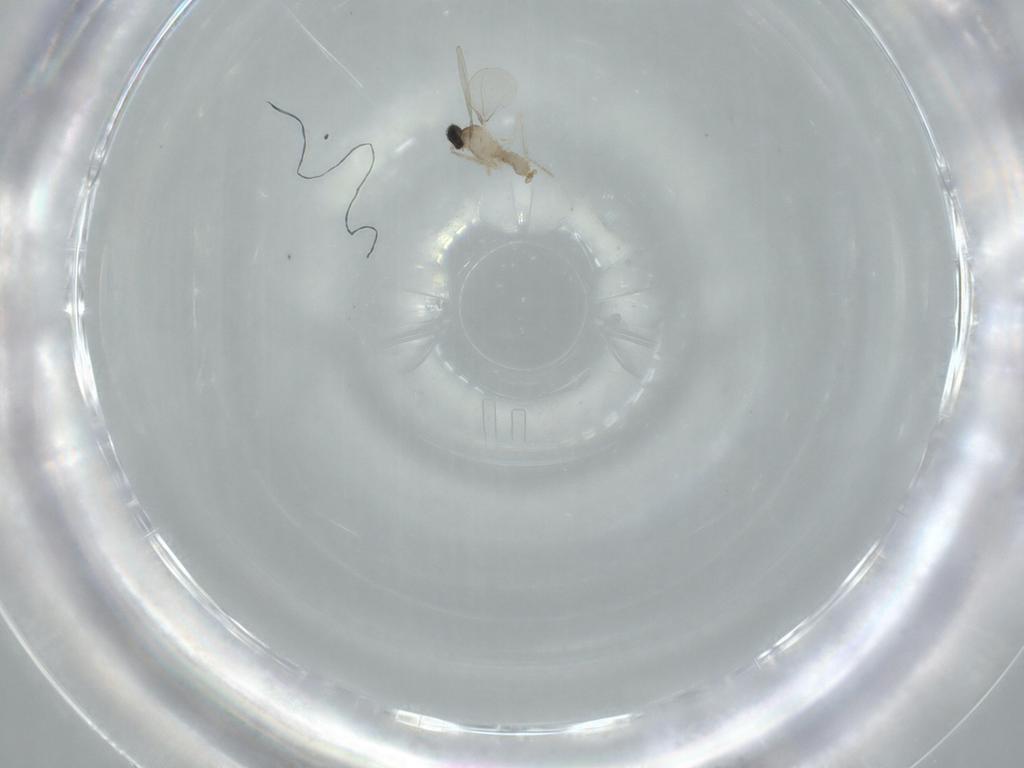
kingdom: Animalia
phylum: Arthropoda
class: Insecta
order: Diptera
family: Cecidomyiidae
